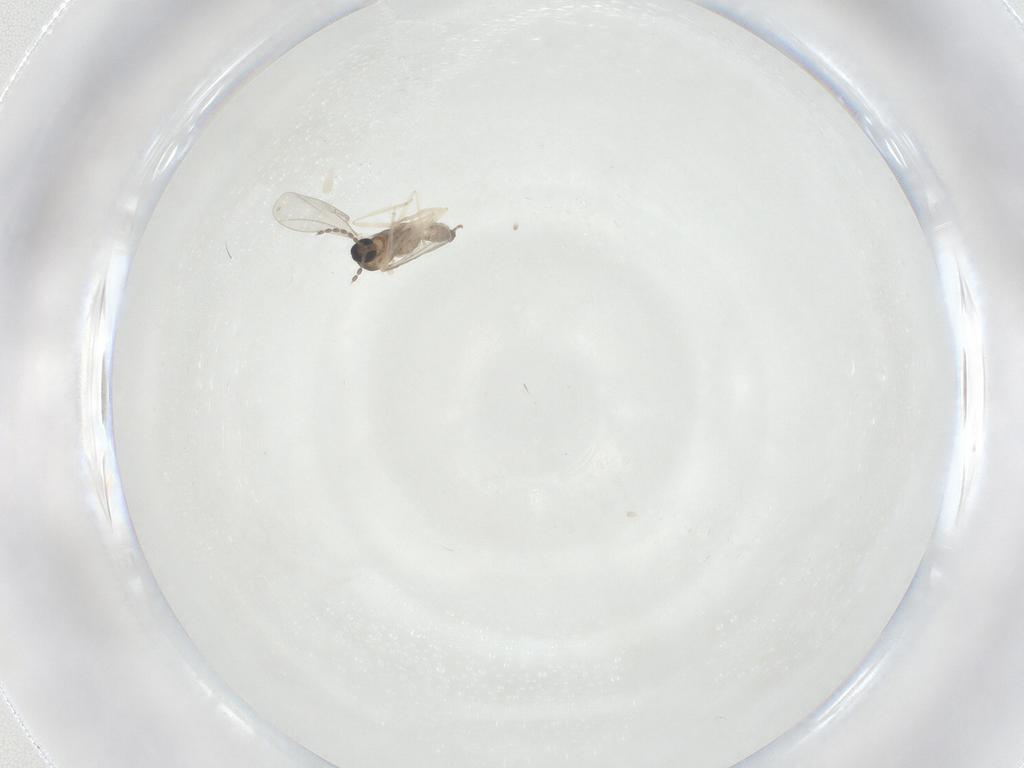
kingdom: Animalia
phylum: Arthropoda
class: Insecta
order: Diptera
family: Cecidomyiidae
